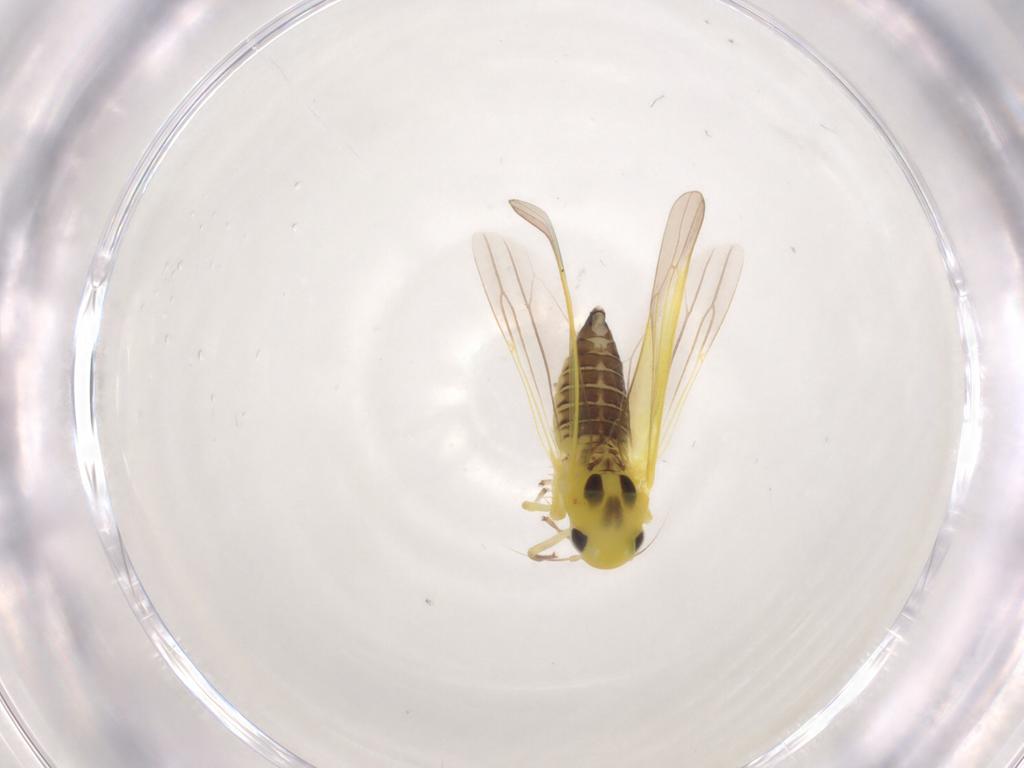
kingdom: Animalia
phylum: Arthropoda
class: Insecta
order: Hemiptera
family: Cicadellidae
